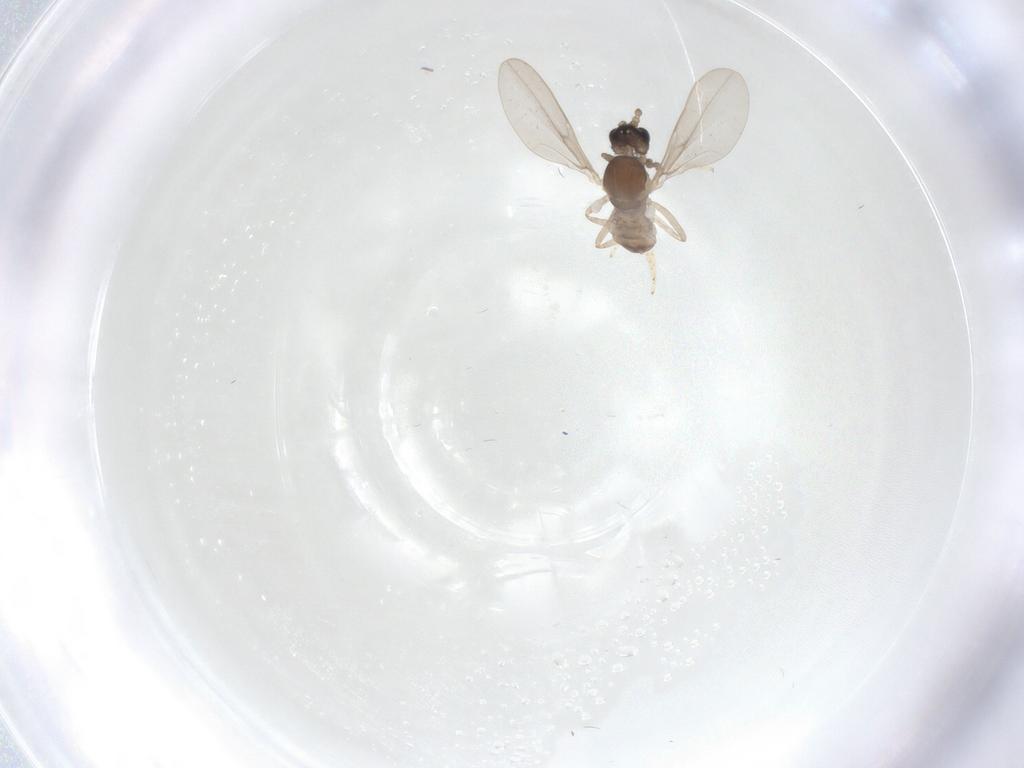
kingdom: Animalia
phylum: Arthropoda
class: Insecta
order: Diptera
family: Cecidomyiidae
